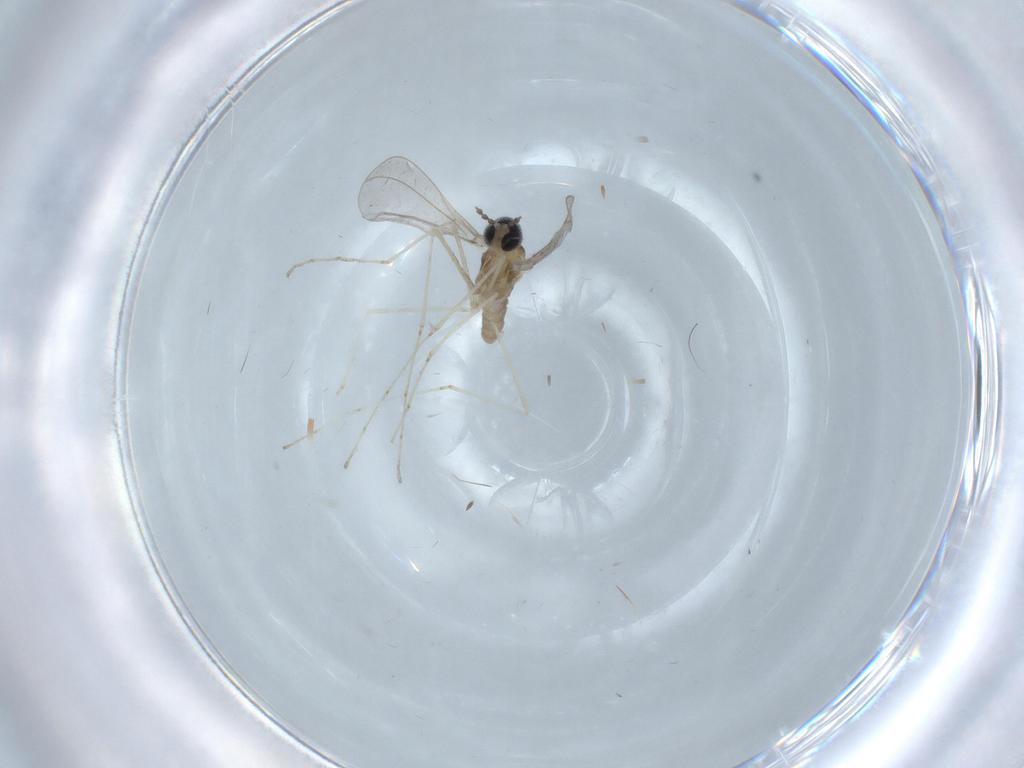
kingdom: Animalia
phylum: Arthropoda
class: Insecta
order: Diptera
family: Cecidomyiidae
